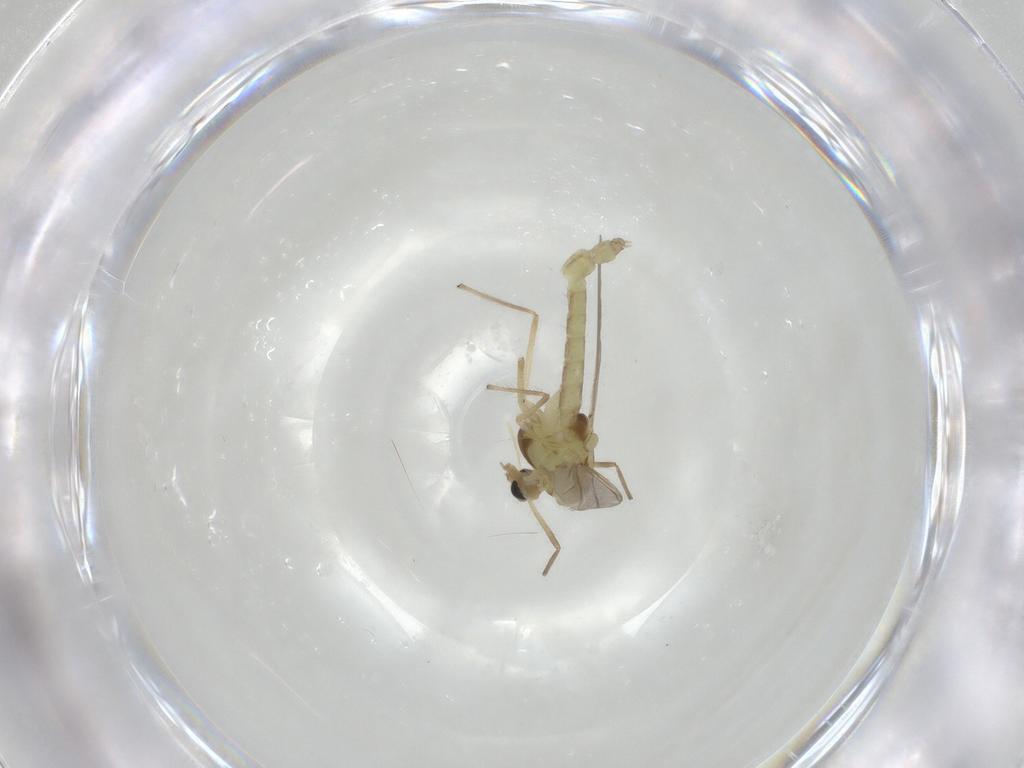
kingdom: Animalia
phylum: Arthropoda
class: Insecta
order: Diptera
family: Chironomidae
